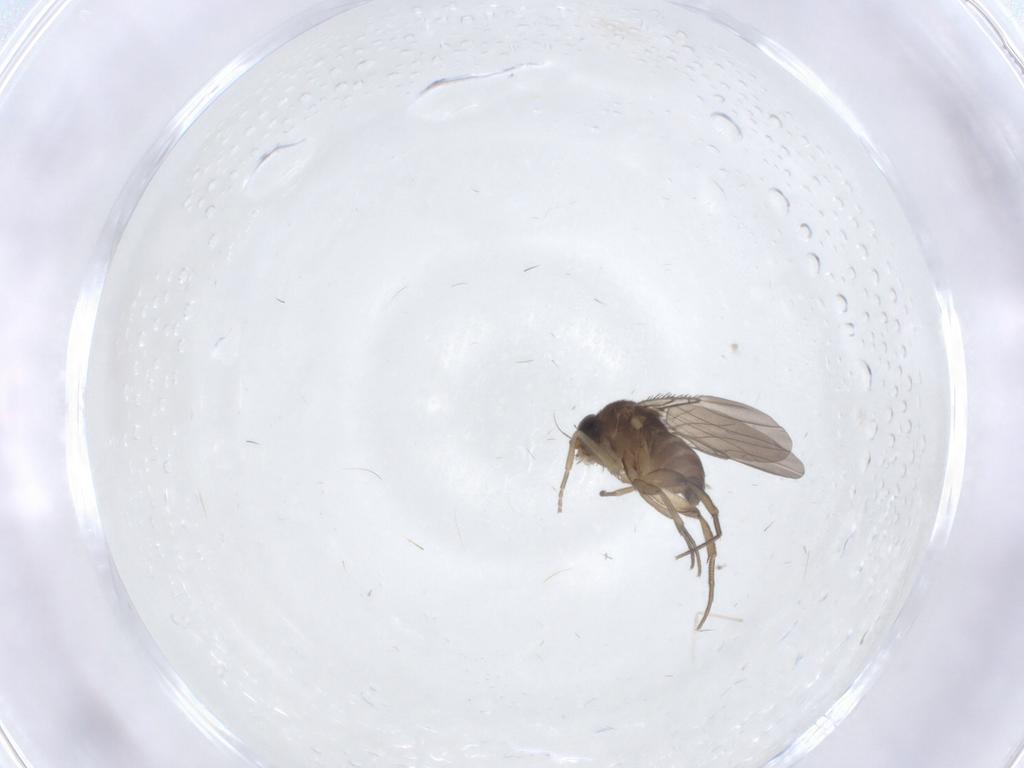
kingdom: Animalia
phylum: Arthropoda
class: Insecta
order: Diptera
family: Phoridae
